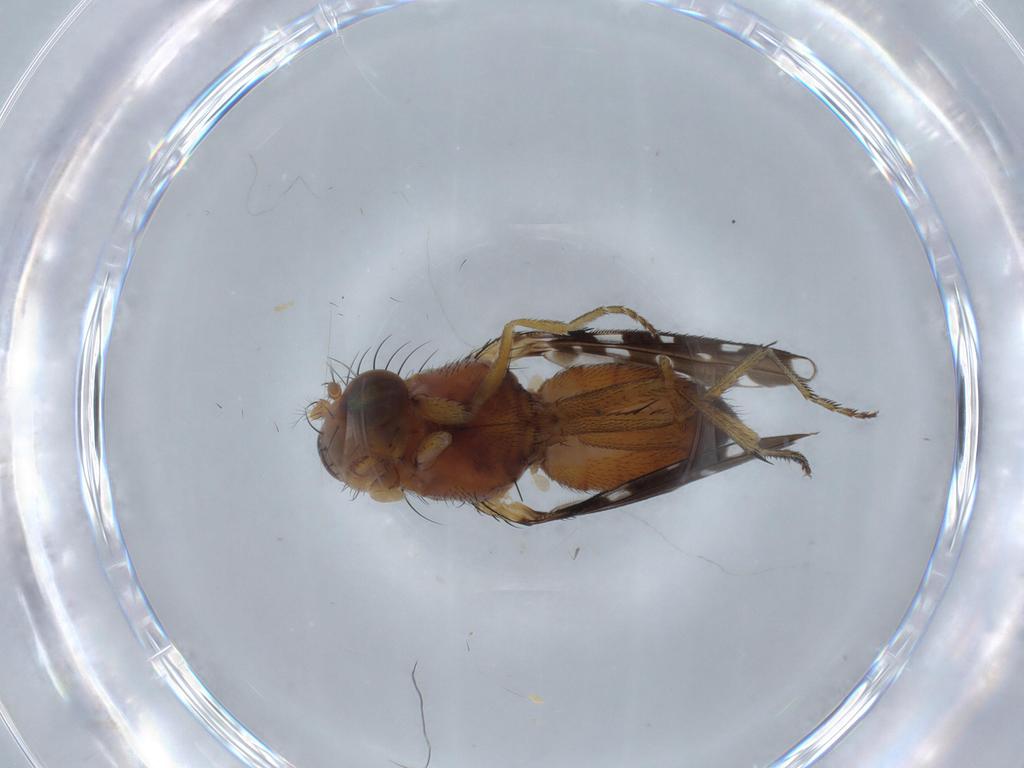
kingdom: Animalia
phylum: Arthropoda
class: Insecta
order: Diptera
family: Ephydridae
